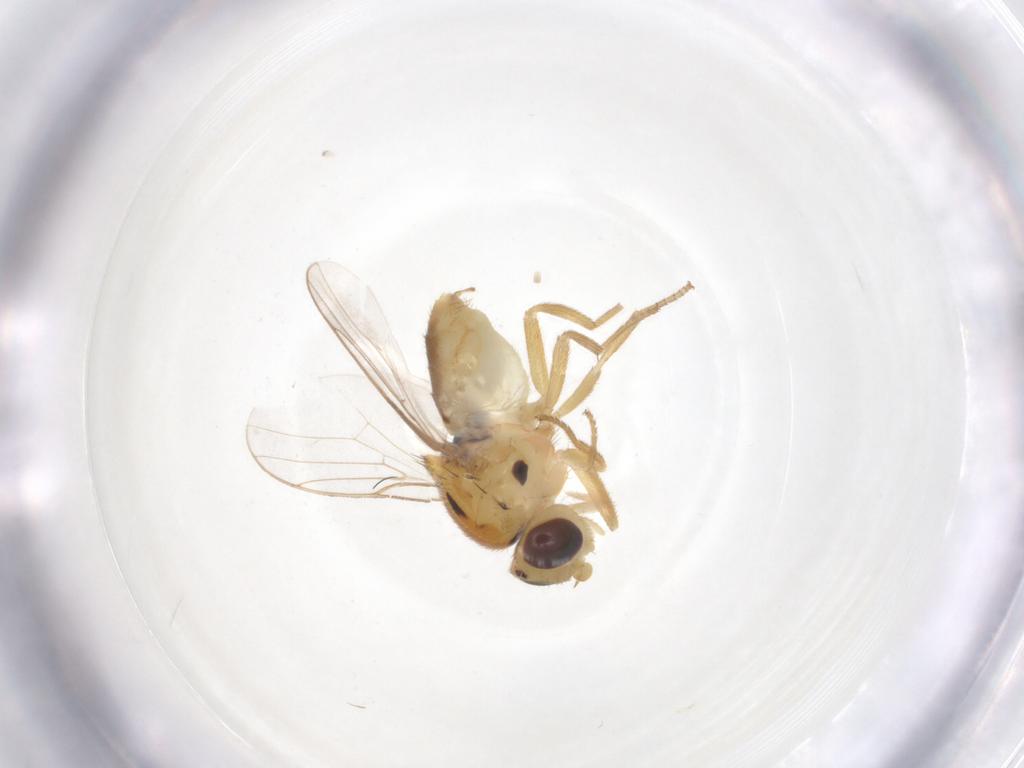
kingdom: Animalia
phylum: Arthropoda
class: Insecta
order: Diptera
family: Chloropidae
